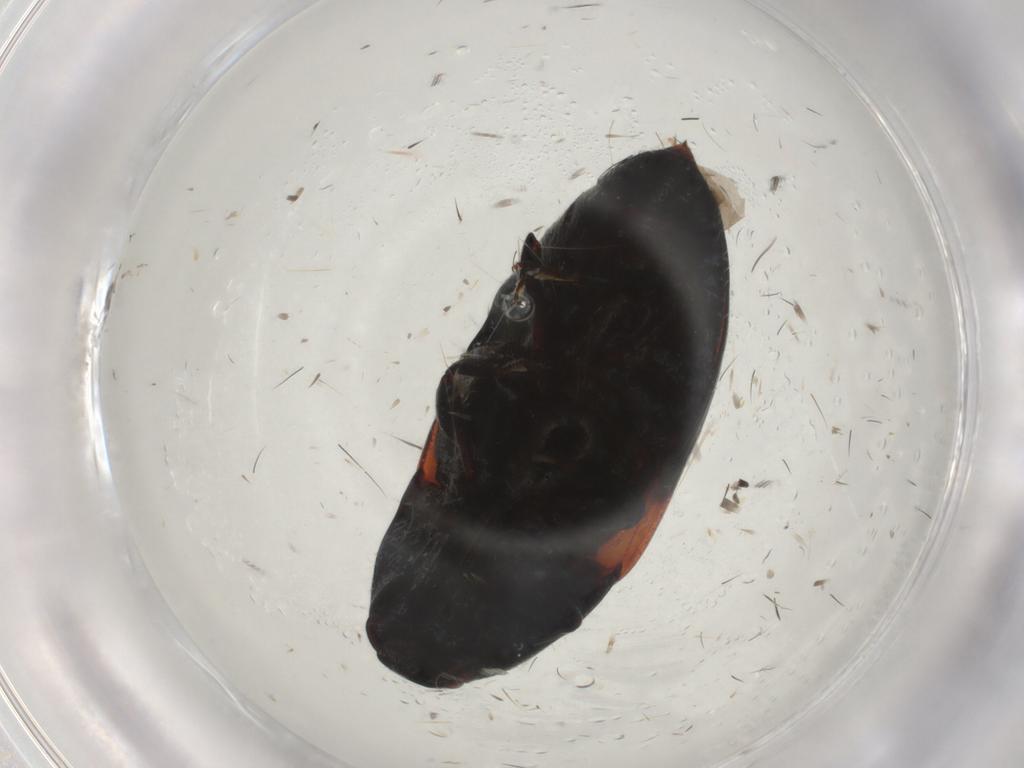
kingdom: Animalia
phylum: Arthropoda
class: Insecta
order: Coleoptera
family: Elateridae
